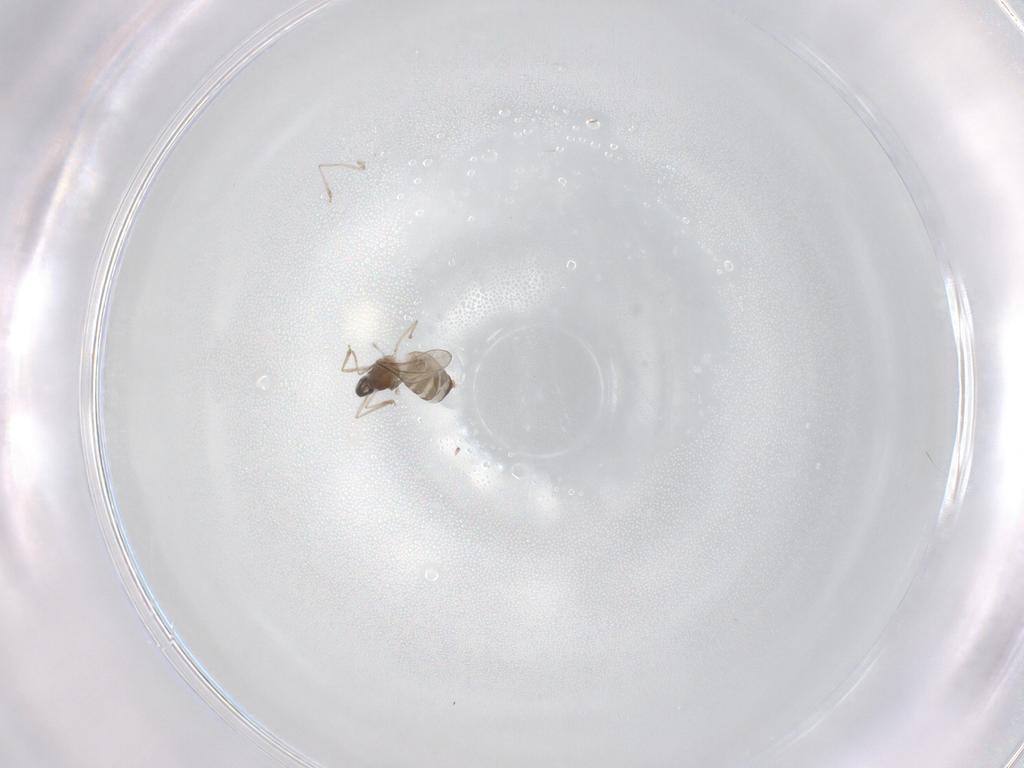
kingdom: Animalia
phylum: Arthropoda
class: Insecta
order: Diptera
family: Cecidomyiidae
